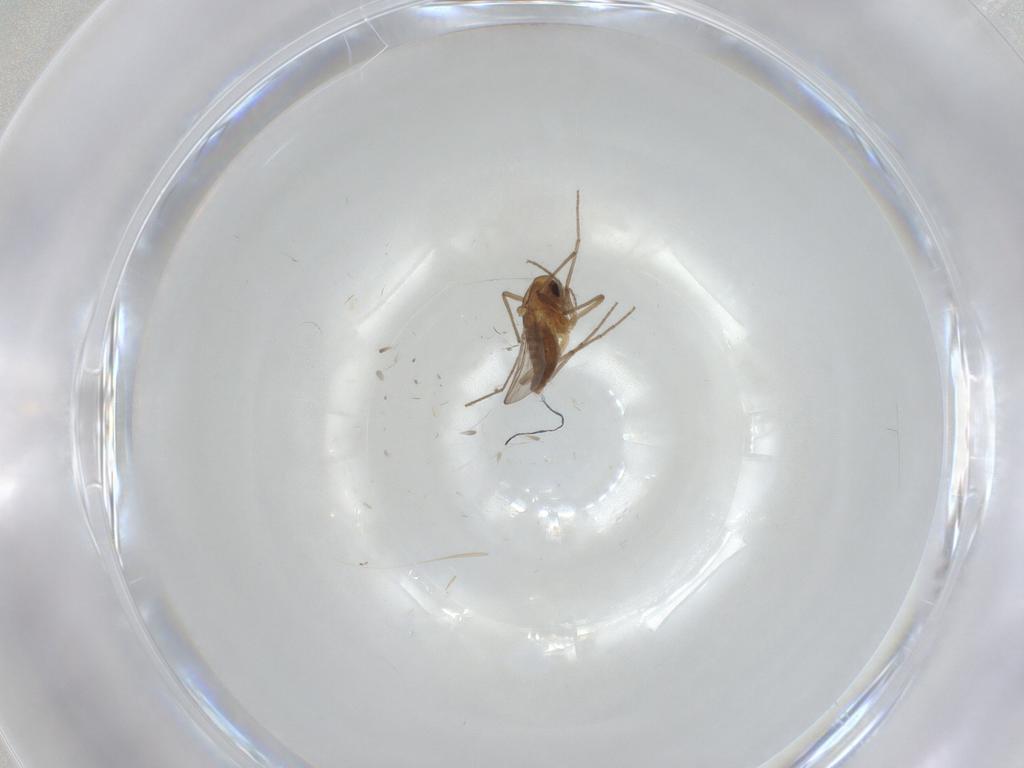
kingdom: Animalia
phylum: Arthropoda
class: Insecta
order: Diptera
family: Chironomidae
